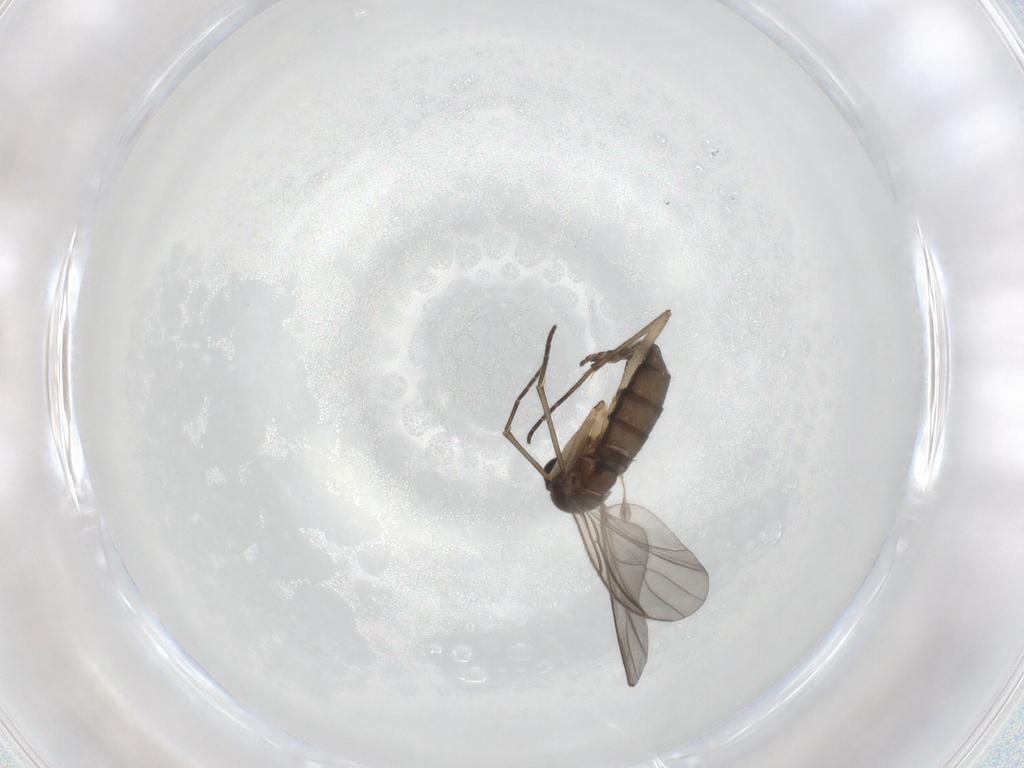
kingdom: Animalia
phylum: Arthropoda
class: Insecta
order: Diptera
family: Sciaridae
